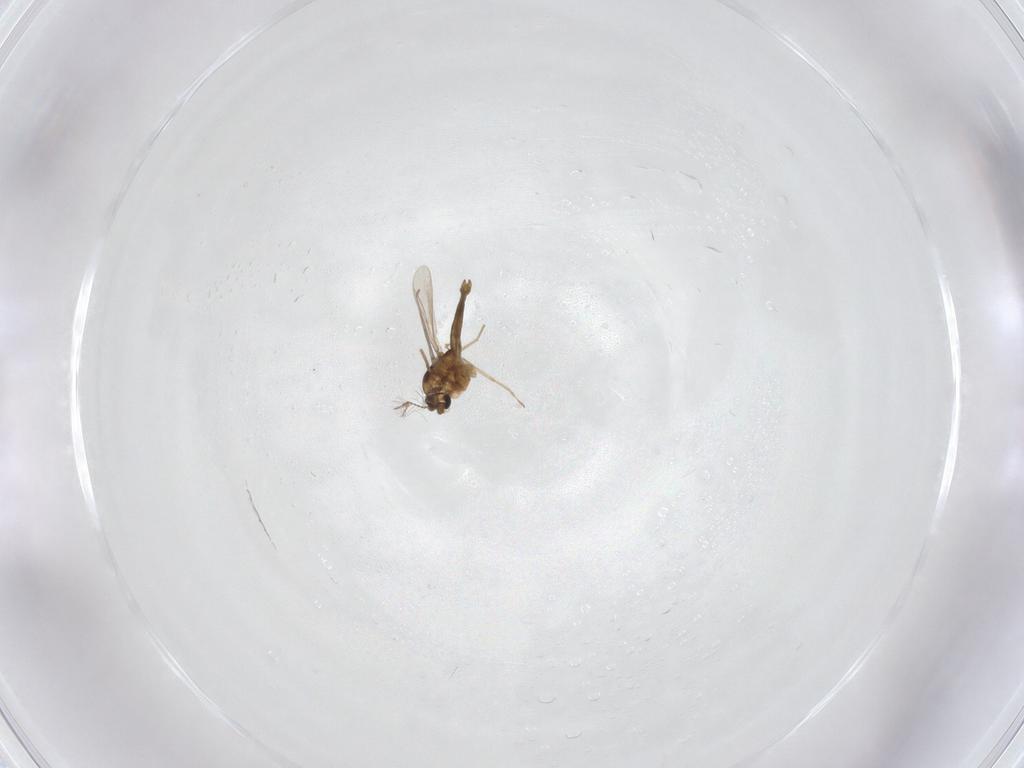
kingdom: Animalia
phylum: Arthropoda
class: Insecta
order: Diptera
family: Chironomidae
